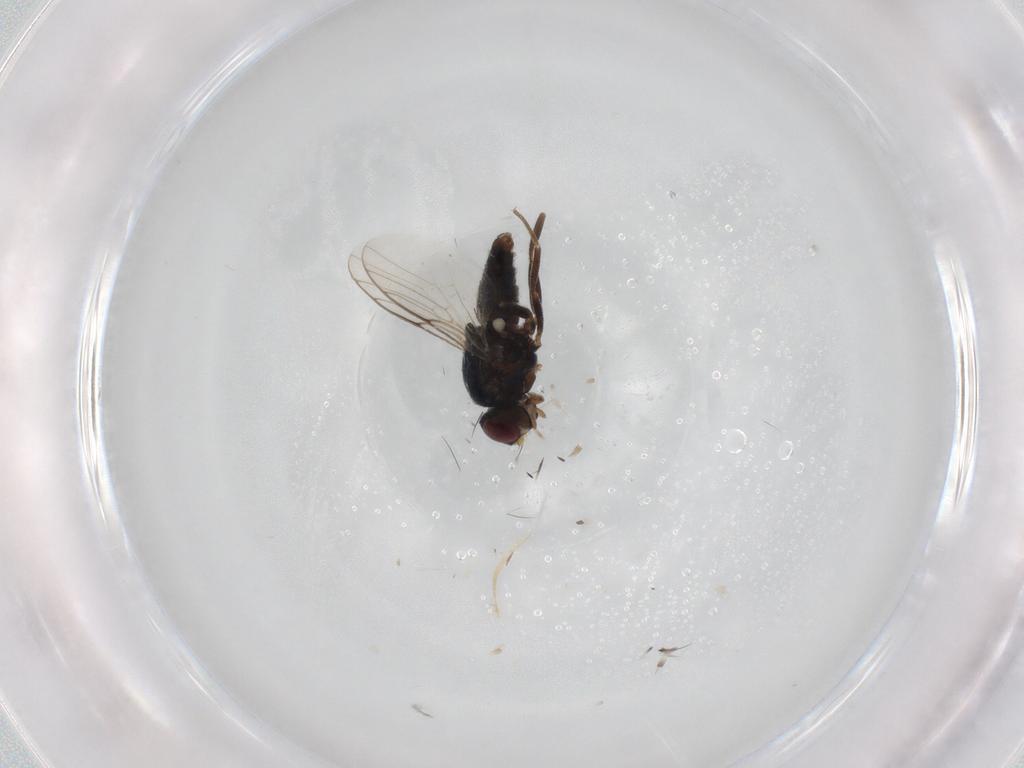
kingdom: Animalia
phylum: Arthropoda
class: Insecta
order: Diptera
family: Chloropidae
